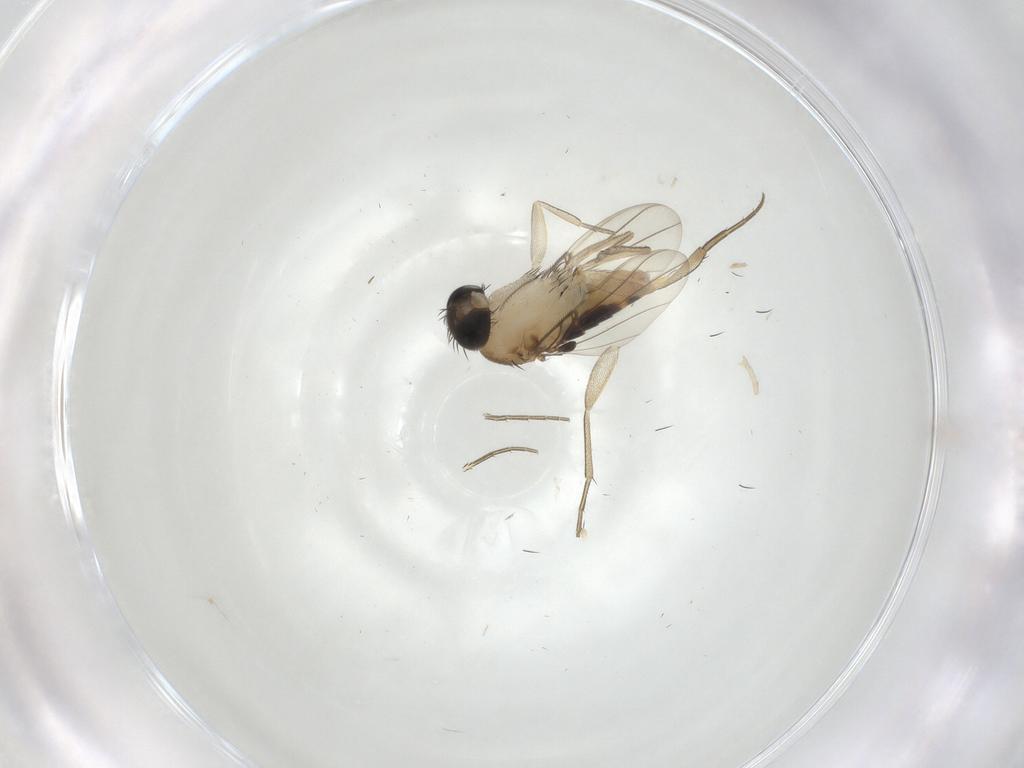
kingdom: Animalia
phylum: Arthropoda
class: Insecta
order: Diptera
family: Phoridae
